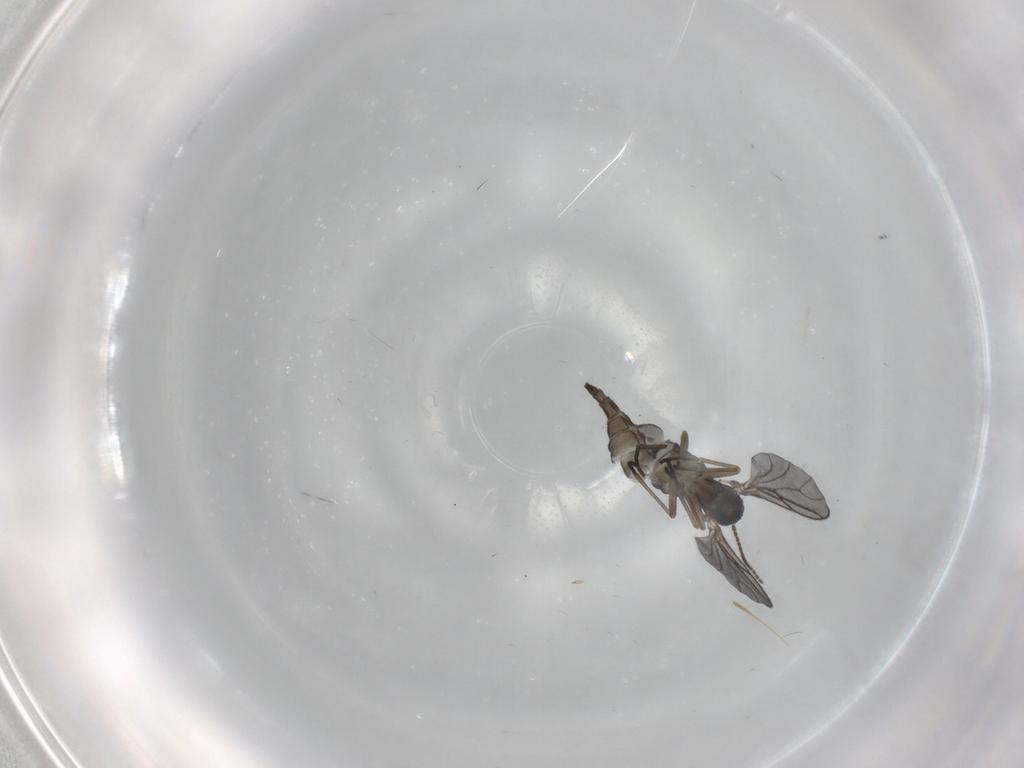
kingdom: Animalia
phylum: Arthropoda
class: Insecta
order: Diptera
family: Sciaridae
